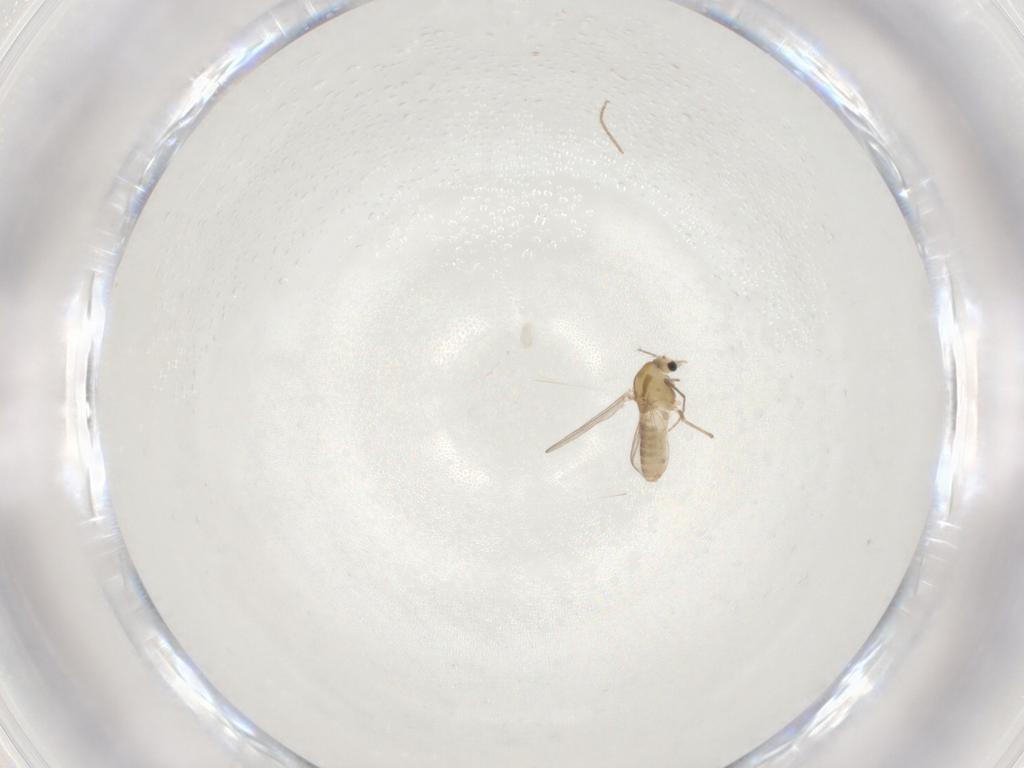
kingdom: Animalia
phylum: Arthropoda
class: Insecta
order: Diptera
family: Chironomidae
